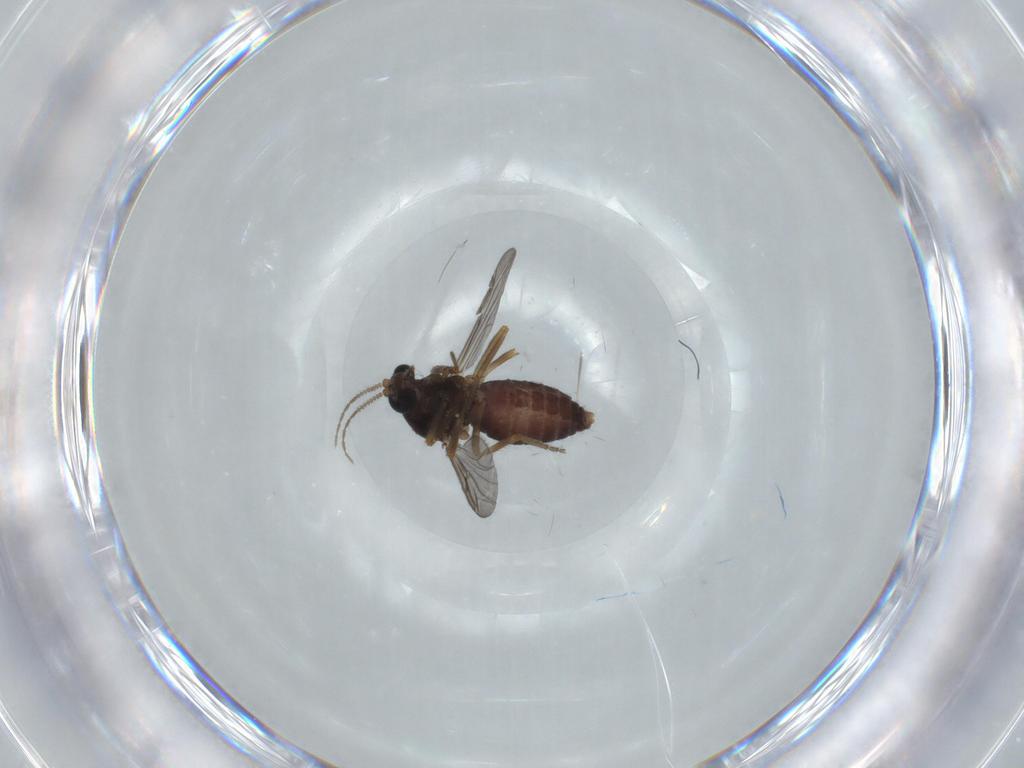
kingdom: Animalia
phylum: Arthropoda
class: Insecta
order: Diptera
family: Ceratopogonidae
